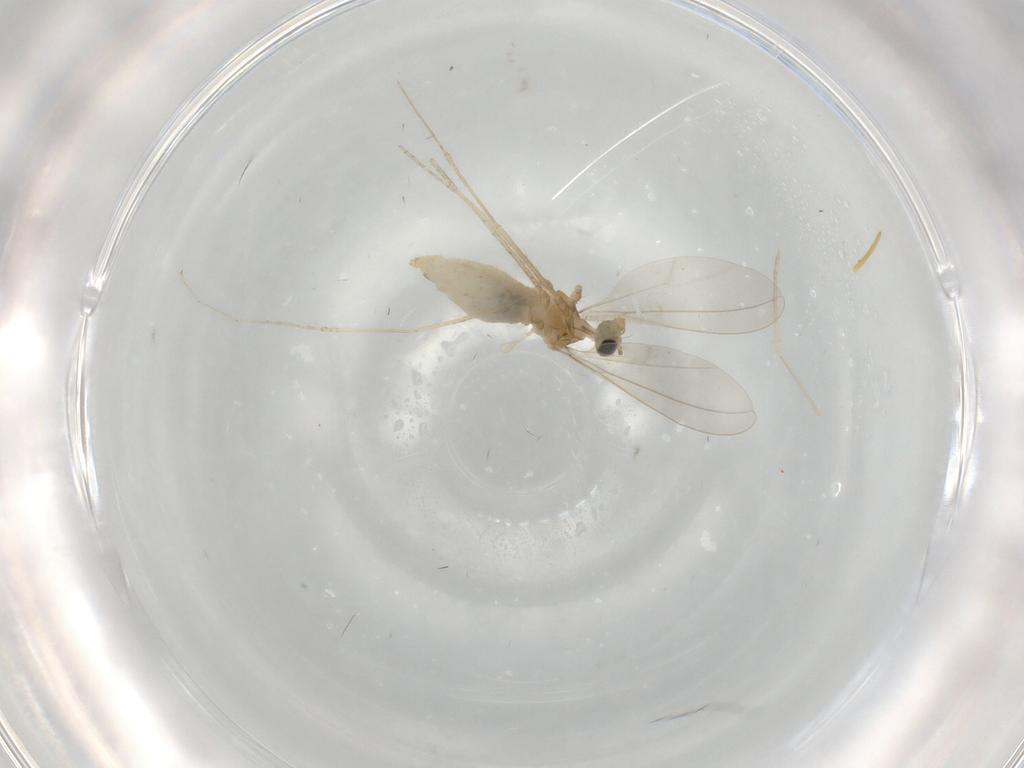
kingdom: Animalia
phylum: Arthropoda
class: Insecta
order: Diptera
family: Cecidomyiidae
